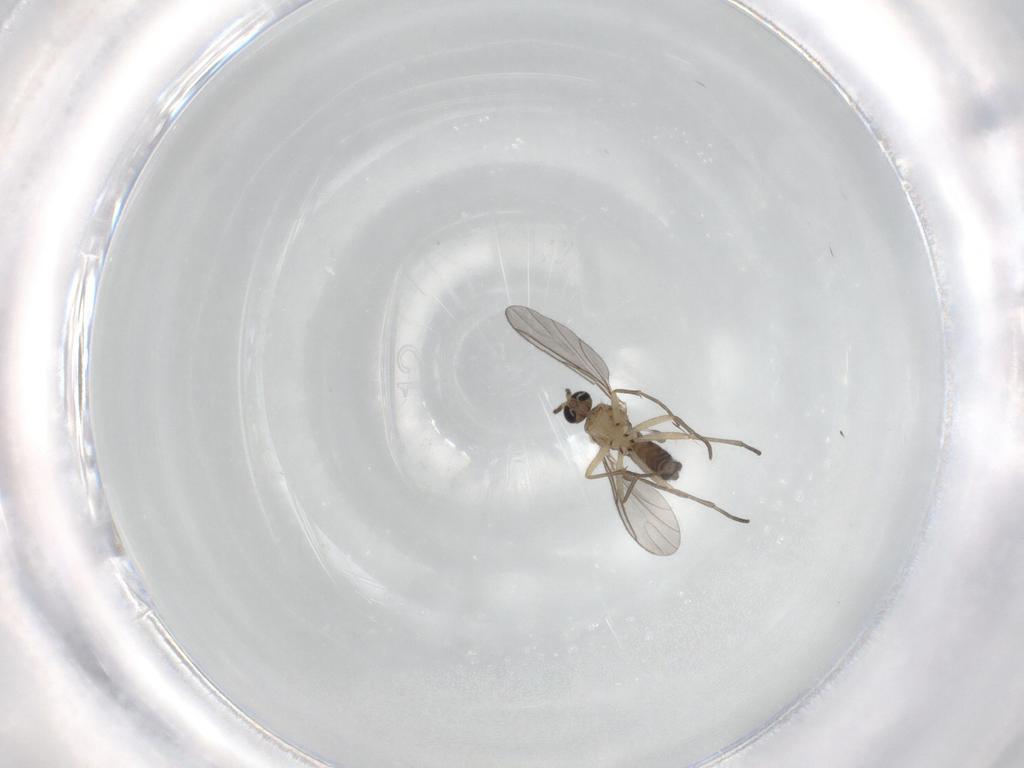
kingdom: Animalia
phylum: Arthropoda
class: Insecta
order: Diptera
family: Sciaridae
